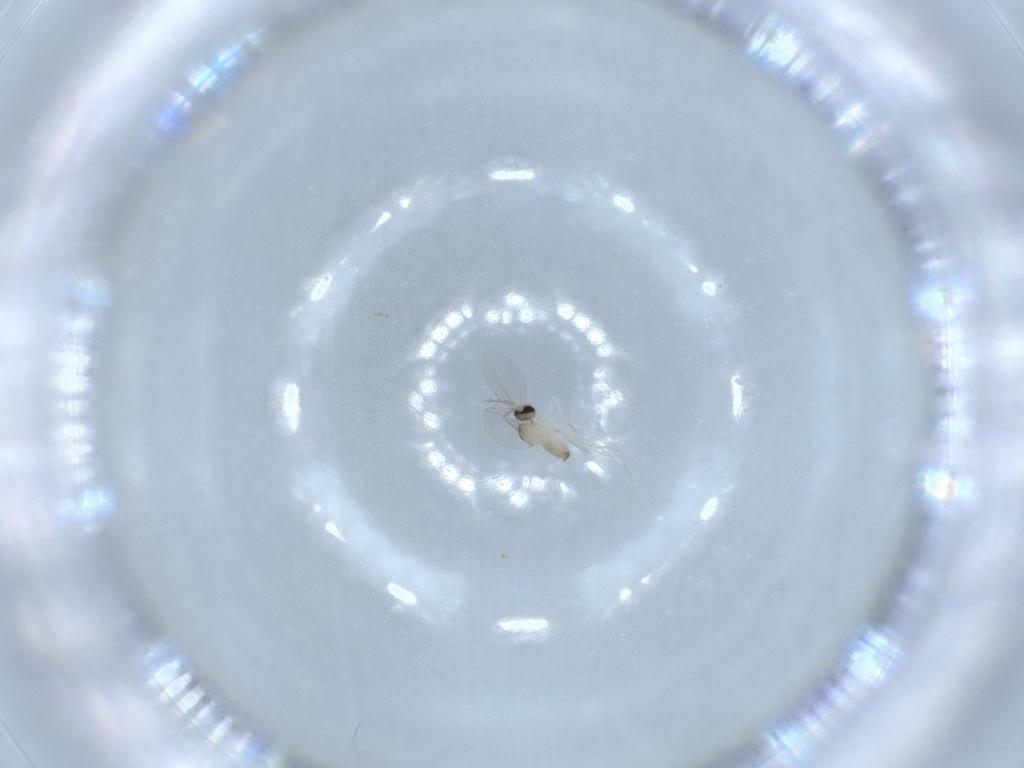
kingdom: Animalia
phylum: Arthropoda
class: Insecta
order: Diptera
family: Cecidomyiidae
